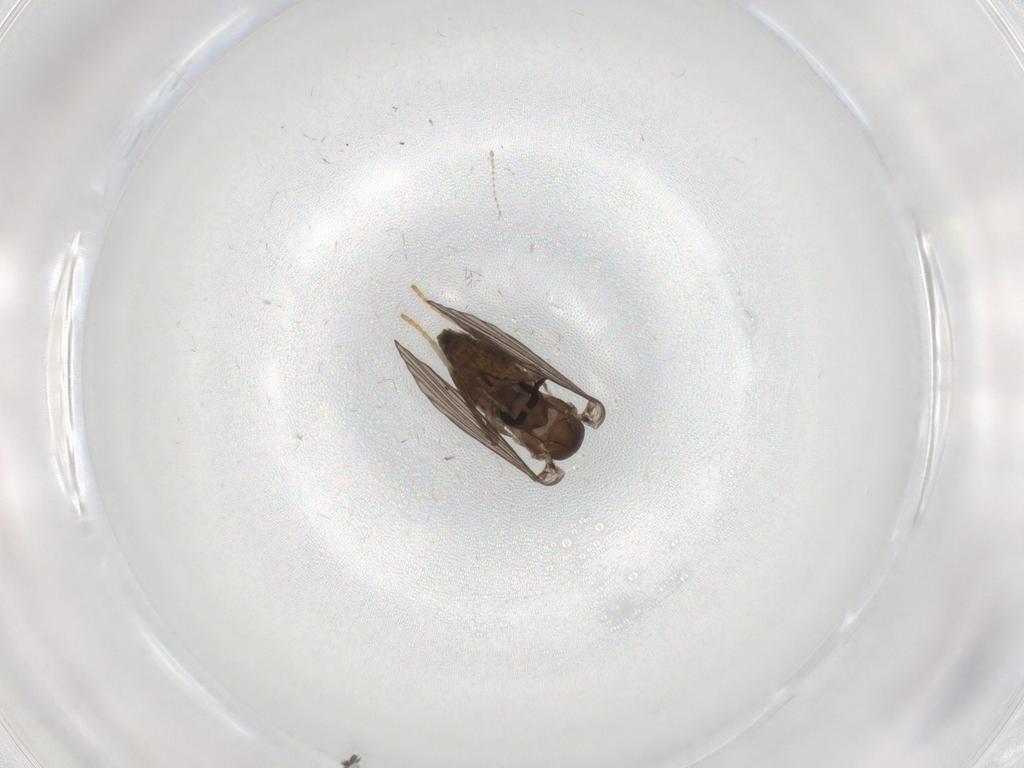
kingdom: Animalia
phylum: Arthropoda
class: Insecta
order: Diptera
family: Psychodidae
